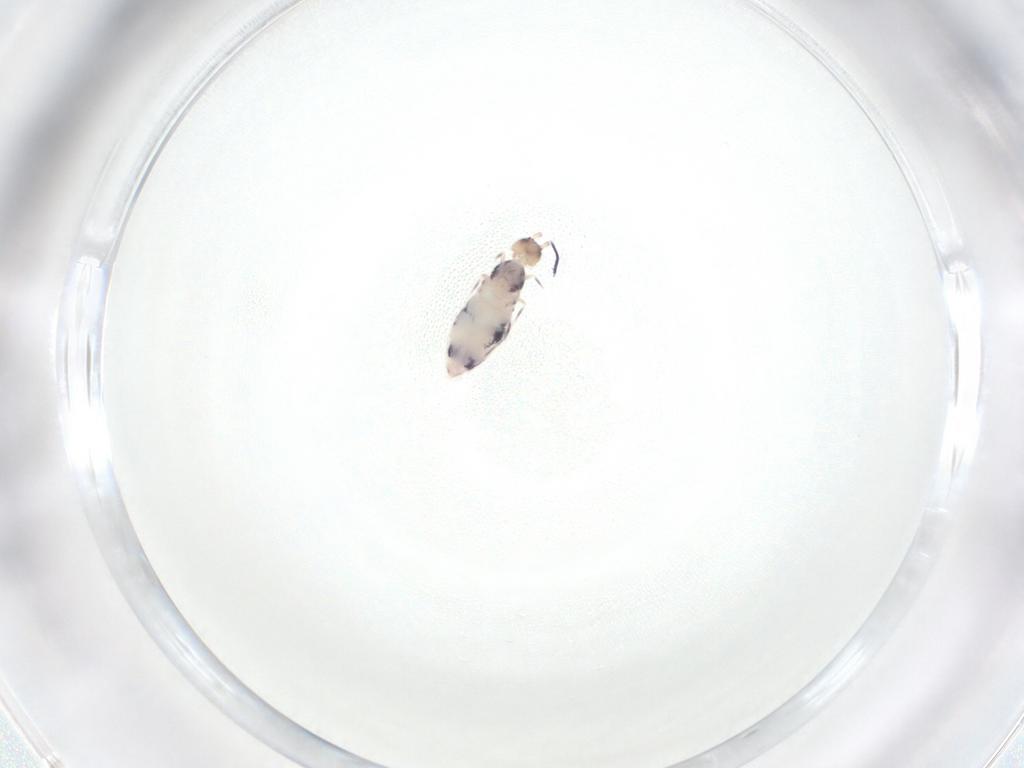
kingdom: Animalia
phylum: Arthropoda
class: Collembola
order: Entomobryomorpha
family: Entomobryidae
